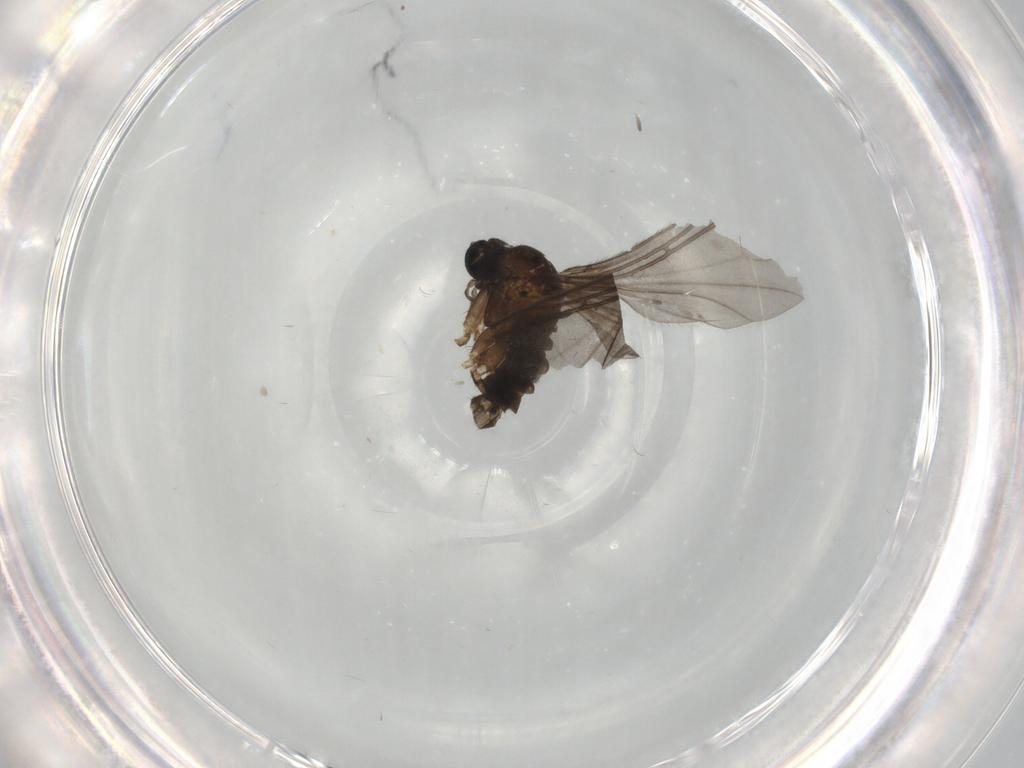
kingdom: Animalia
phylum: Arthropoda
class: Insecta
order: Diptera
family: Sciaridae
